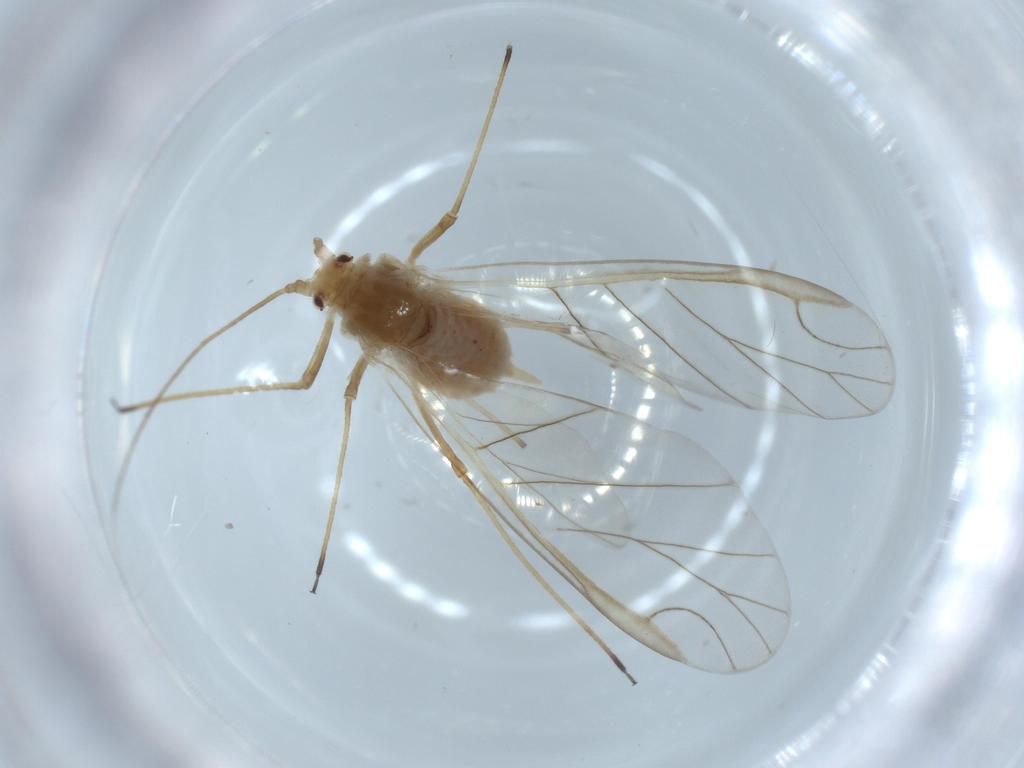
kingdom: Animalia
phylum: Arthropoda
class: Insecta
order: Hemiptera
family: Aphididae
